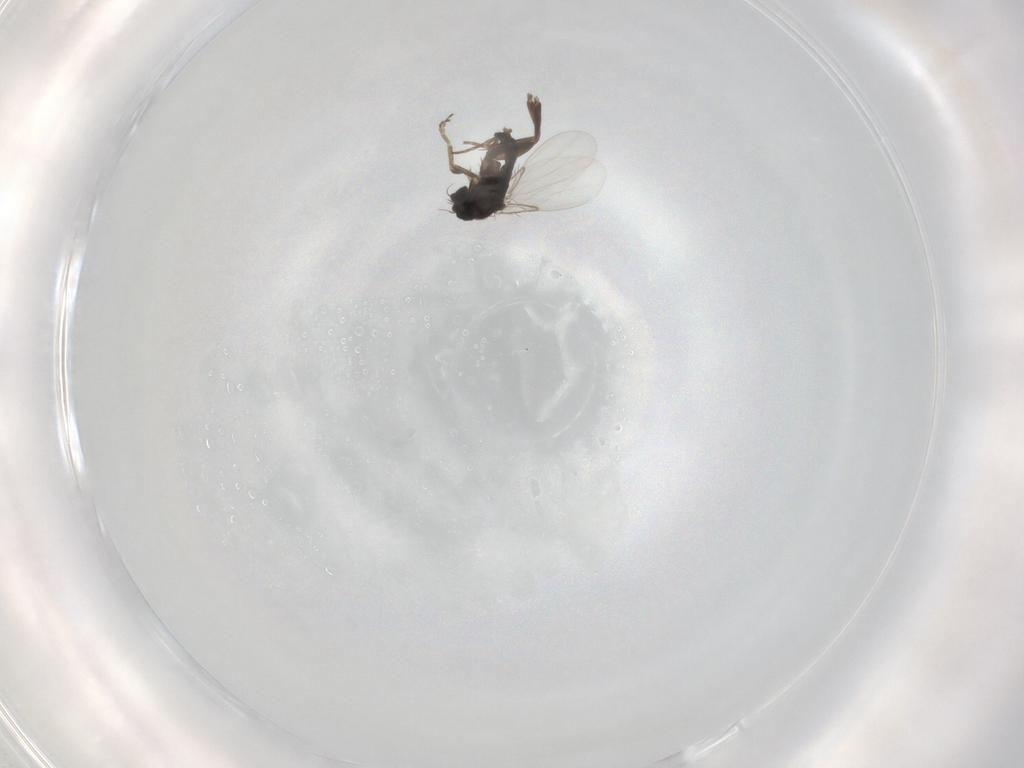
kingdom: Animalia
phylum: Arthropoda
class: Insecta
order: Diptera
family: Phoridae
